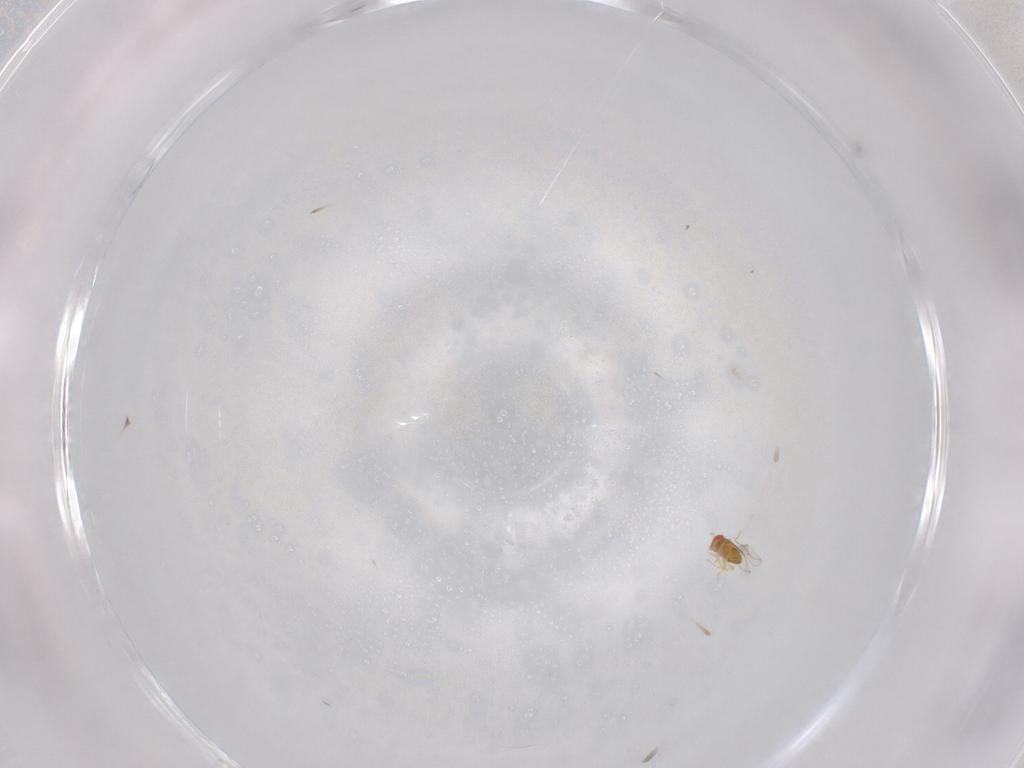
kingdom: Animalia
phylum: Arthropoda
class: Insecta
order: Hymenoptera
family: Trichogrammatidae
